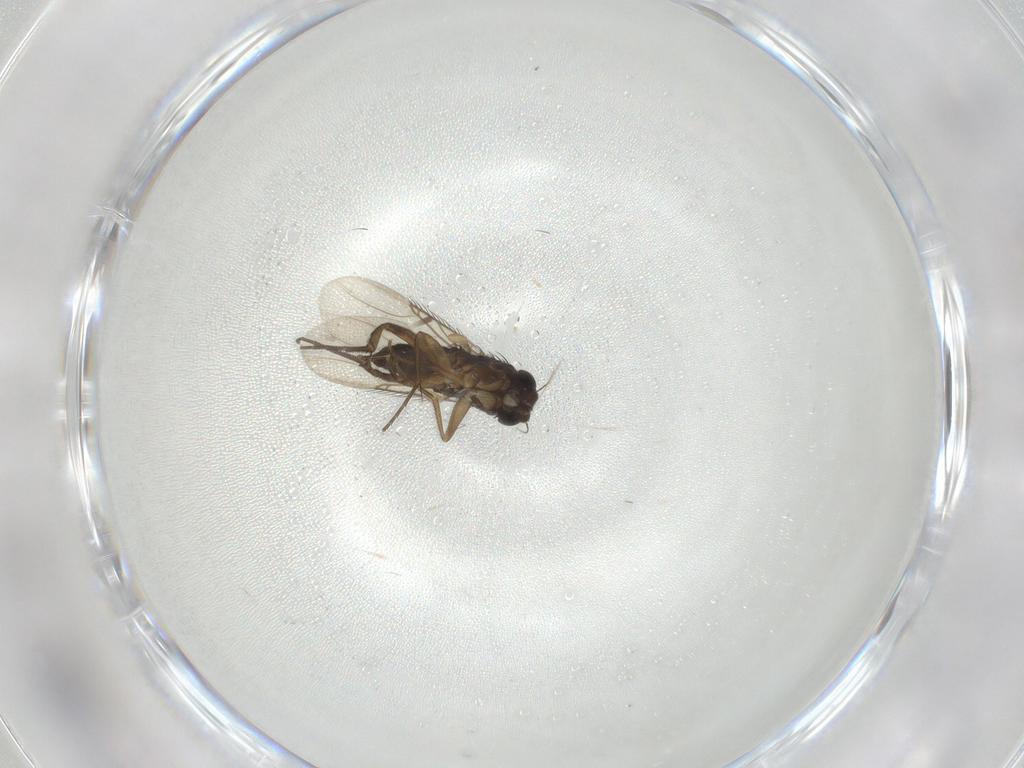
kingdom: Animalia
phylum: Arthropoda
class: Insecta
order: Diptera
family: Phoridae
